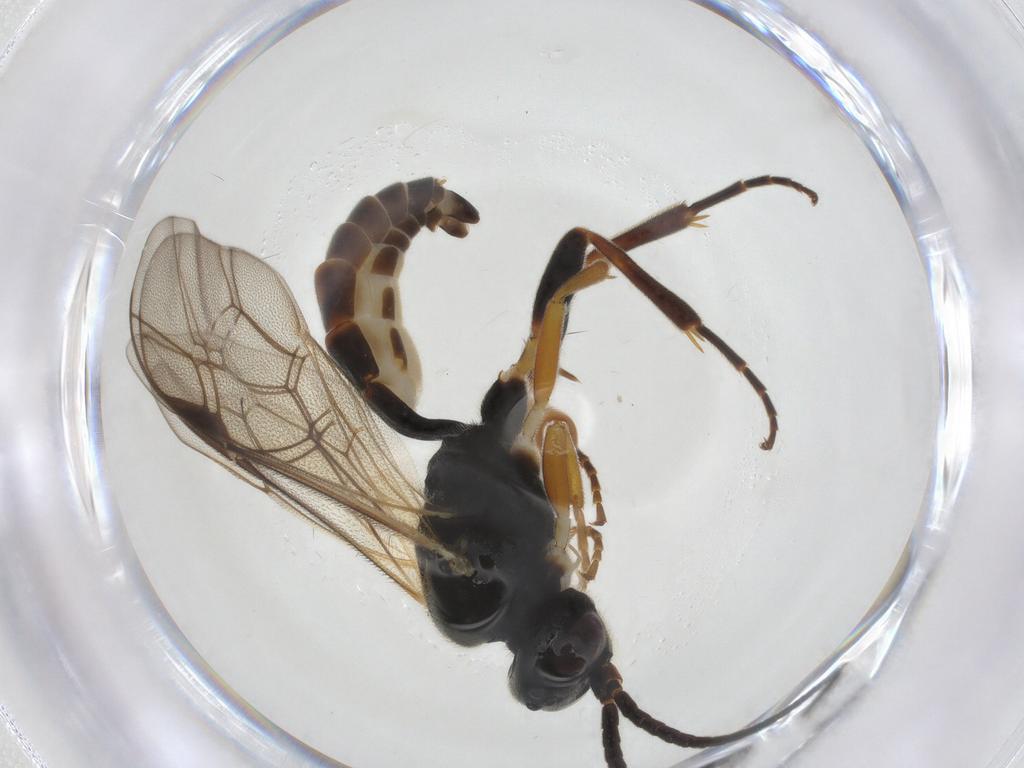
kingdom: Animalia
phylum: Arthropoda
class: Insecta
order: Hymenoptera
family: Ichneumonidae
